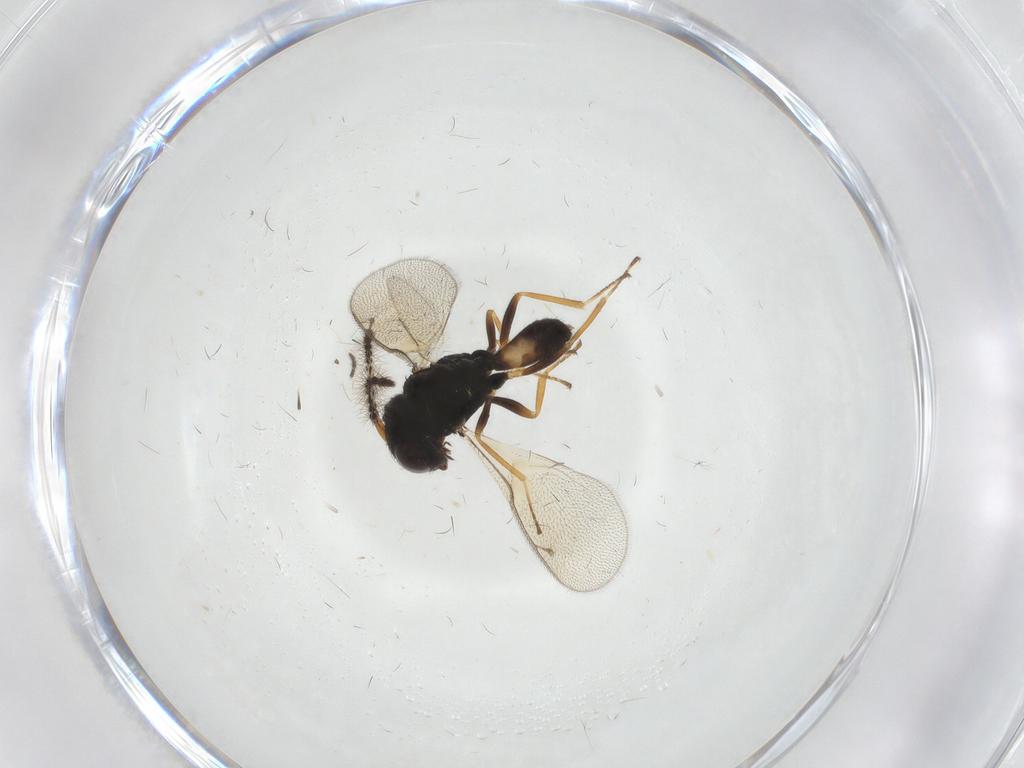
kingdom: Animalia
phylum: Arthropoda
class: Insecta
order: Hymenoptera
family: Pteromalidae
